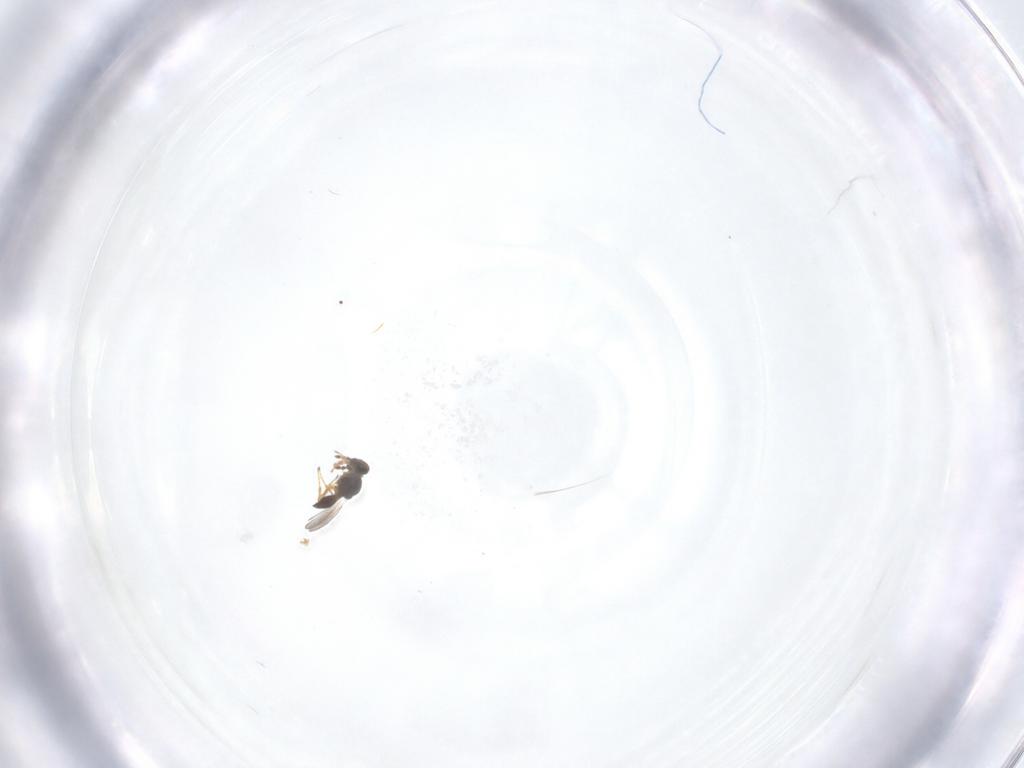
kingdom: Animalia
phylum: Arthropoda
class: Insecta
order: Hymenoptera
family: Platygastridae
